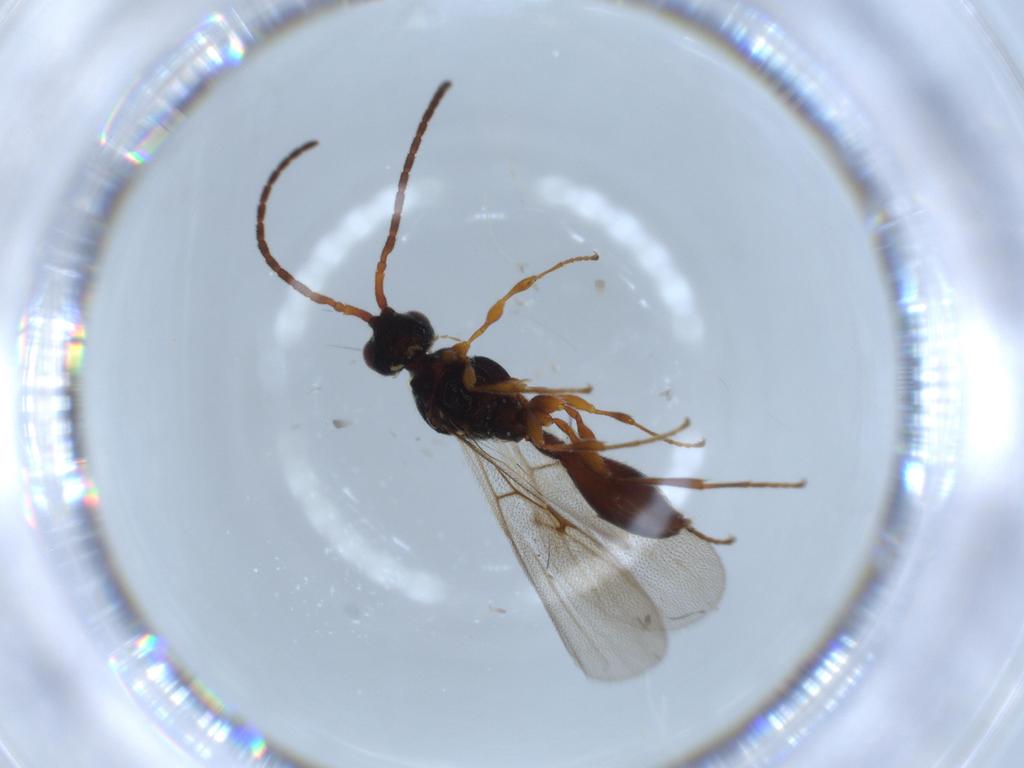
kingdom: Animalia
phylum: Arthropoda
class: Insecta
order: Hymenoptera
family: Diapriidae
